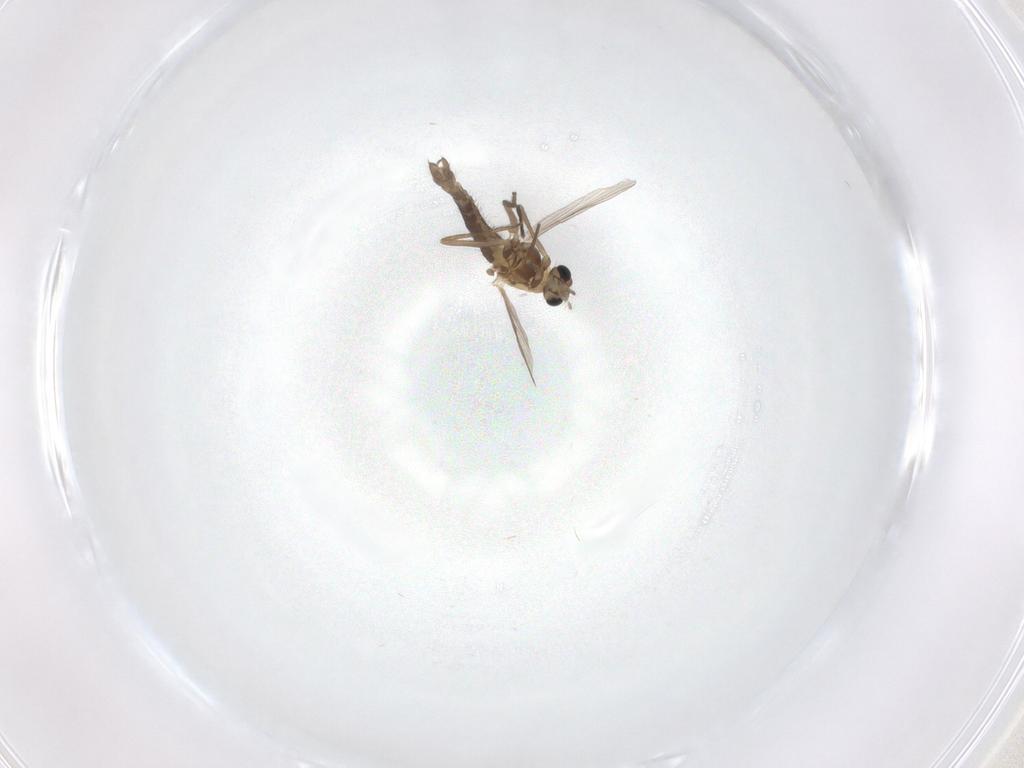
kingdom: Animalia
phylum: Arthropoda
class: Insecta
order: Diptera
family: Chironomidae
